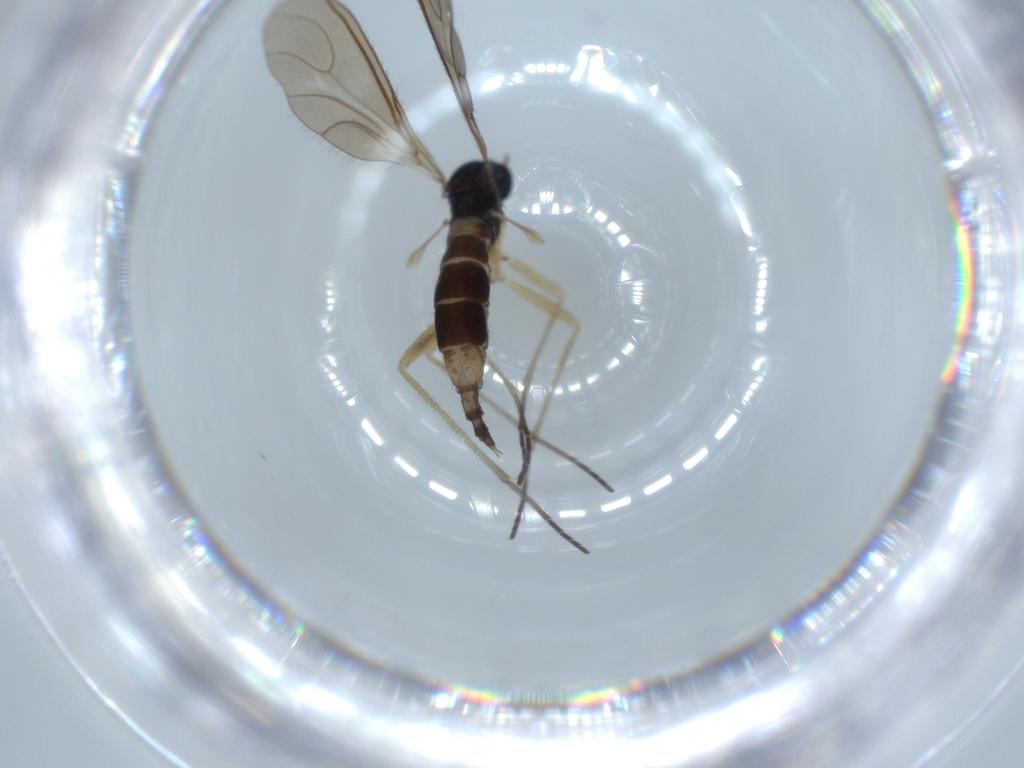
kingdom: Animalia
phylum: Arthropoda
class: Insecta
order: Diptera
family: Sciaridae
